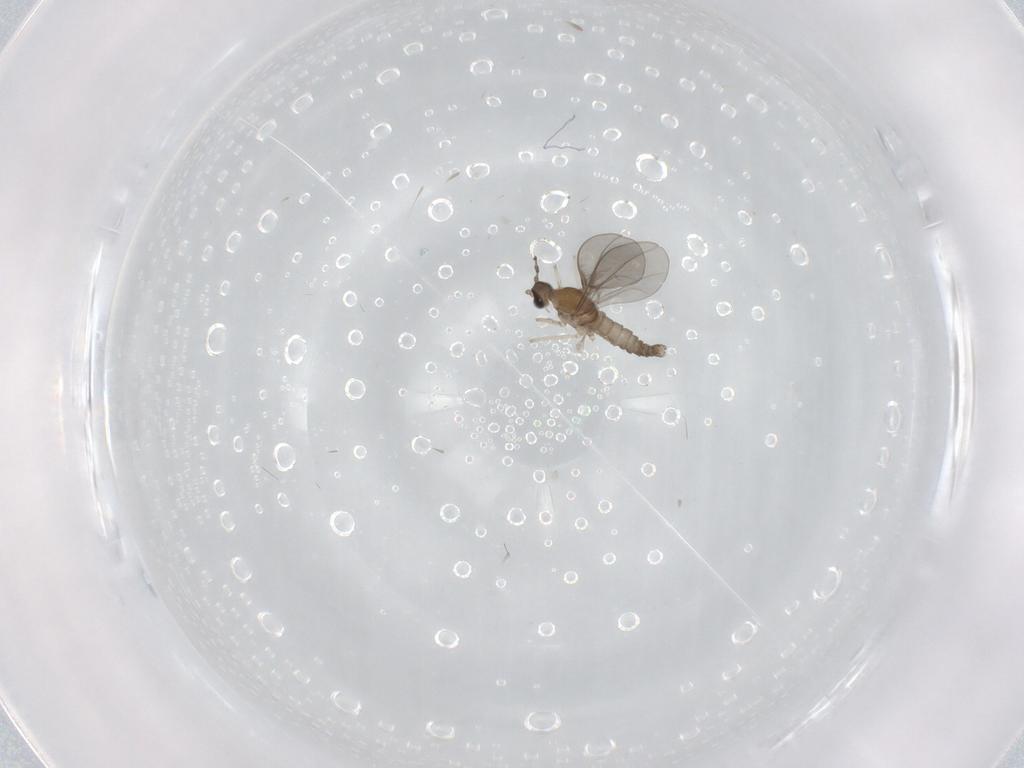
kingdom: Animalia
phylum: Arthropoda
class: Insecta
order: Diptera
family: Cecidomyiidae
